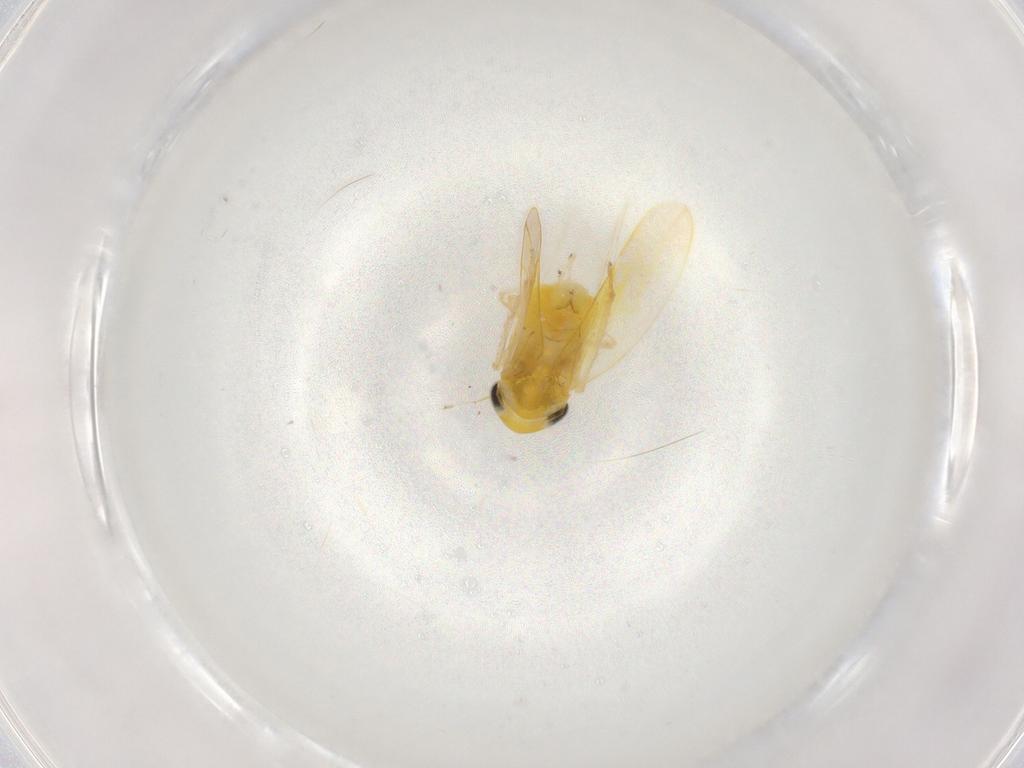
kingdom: Animalia
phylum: Arthropoda
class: Insecta
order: Hemiptera
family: Cicadellidae
